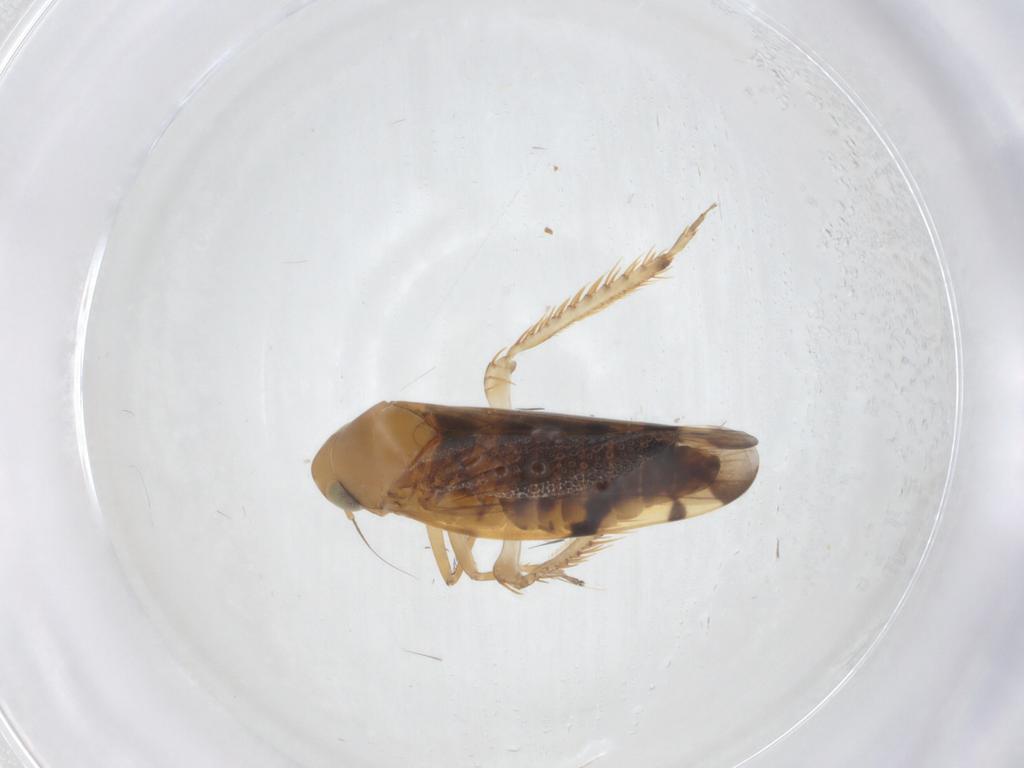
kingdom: Animalia
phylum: Arthropoda
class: Insecta
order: Hemiptera
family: Cicadellidae
